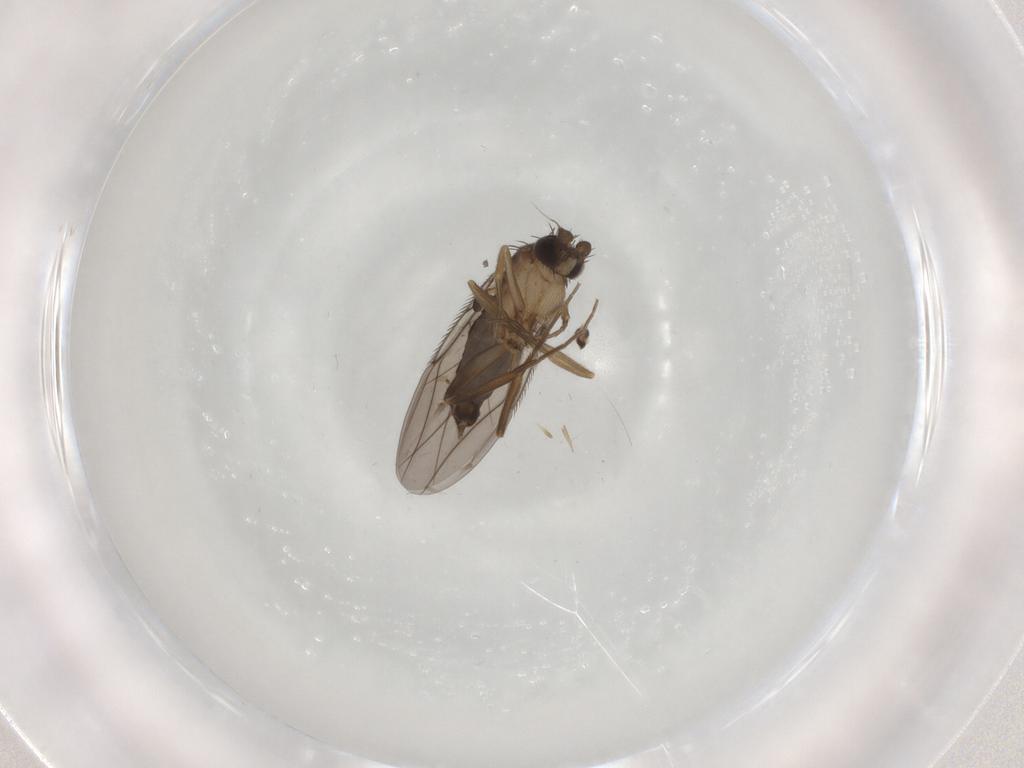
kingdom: Animalia
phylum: Arthropoda
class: Insecta
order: Diptera
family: Phoridae
